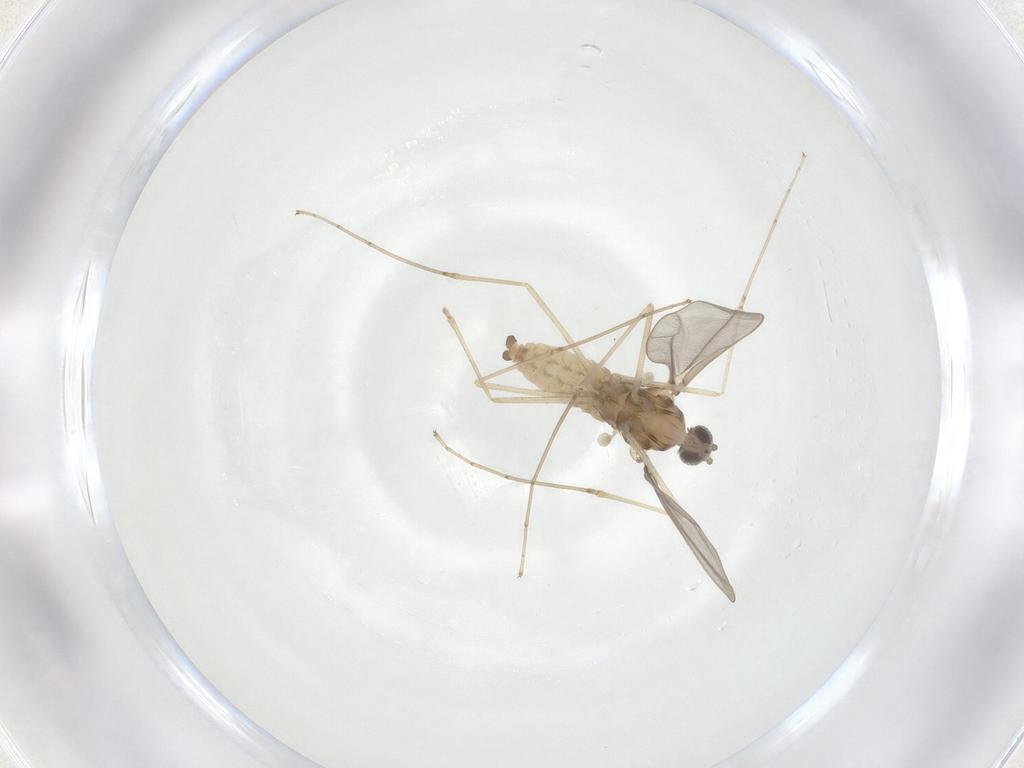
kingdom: Animalia
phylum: Arthropoda
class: Insecta
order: Diptera
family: Cecidomyiidae
